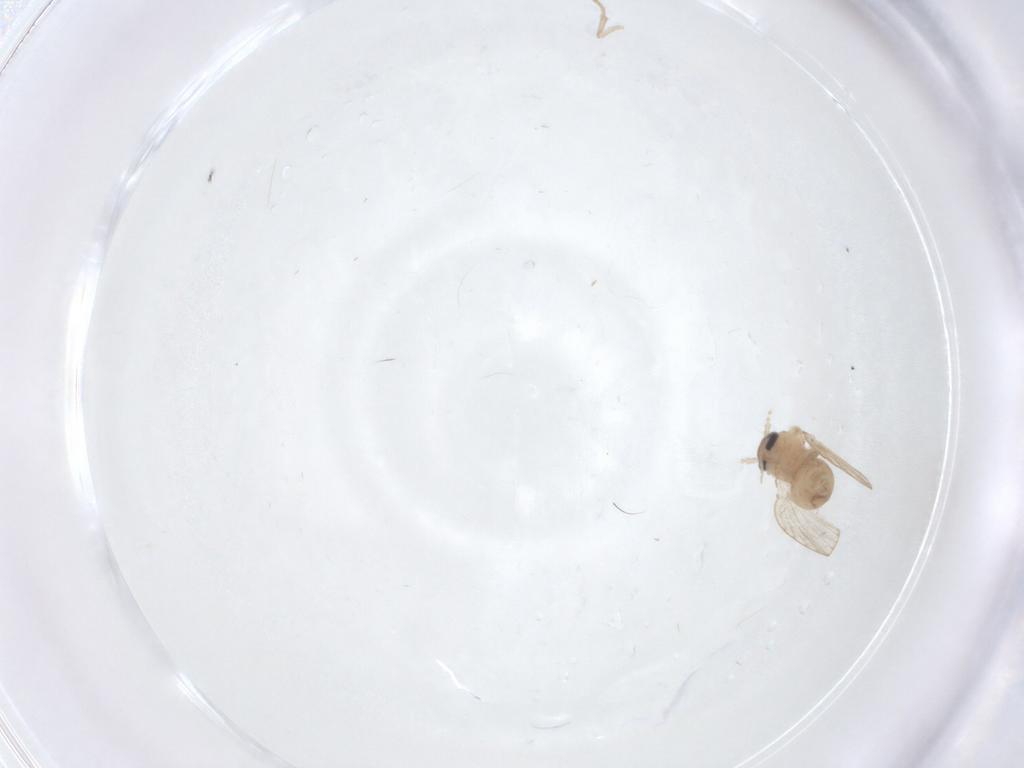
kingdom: Animalia
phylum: Arthropoda
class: Insecta
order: Diptera
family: Psychodidae
